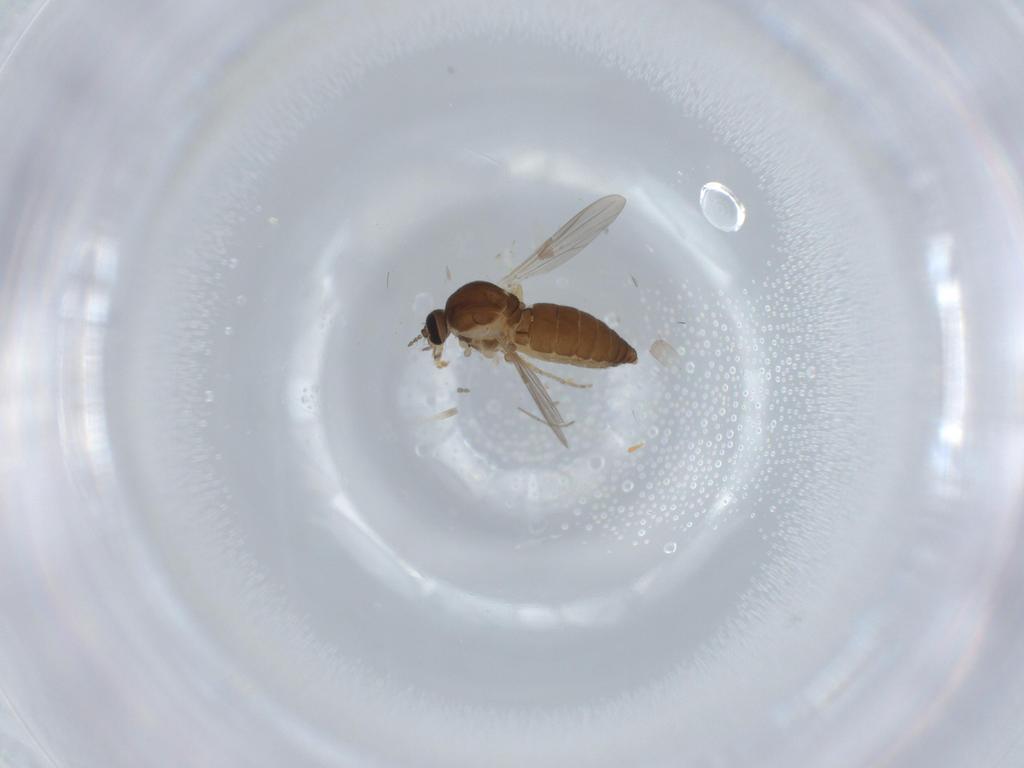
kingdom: Animalia
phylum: Arthropoda
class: Insecta
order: Diptera
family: Ceratopogonidae
